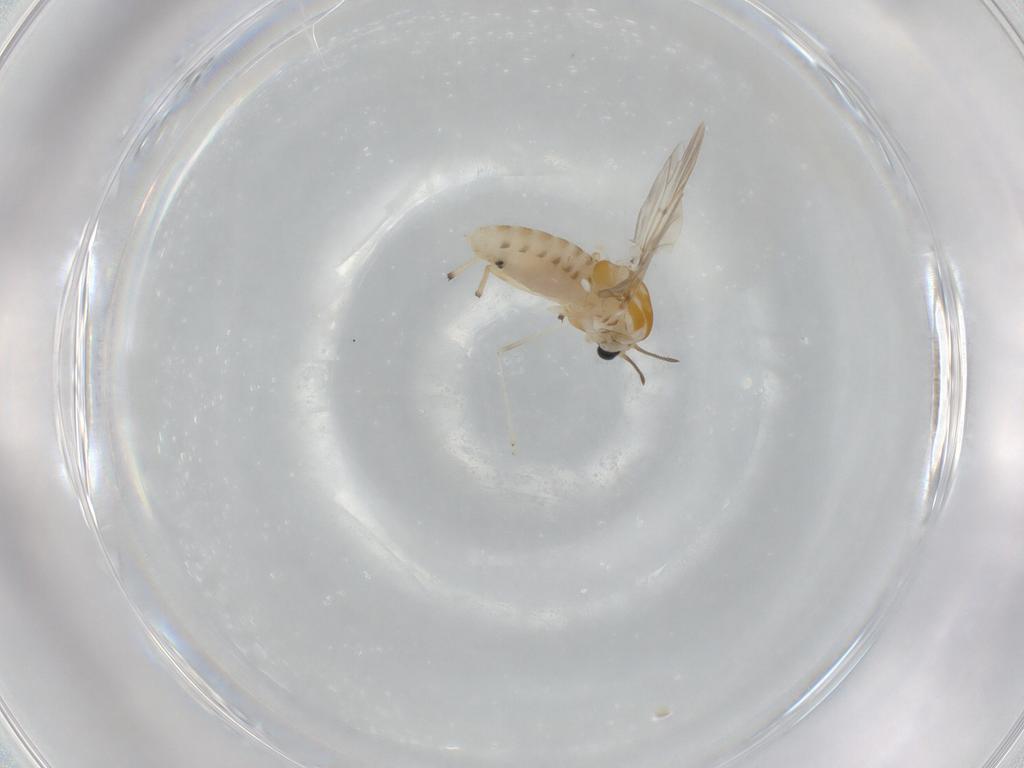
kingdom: Animalia
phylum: Arthropoda
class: Insecta
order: Diptera
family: Chironomidae
